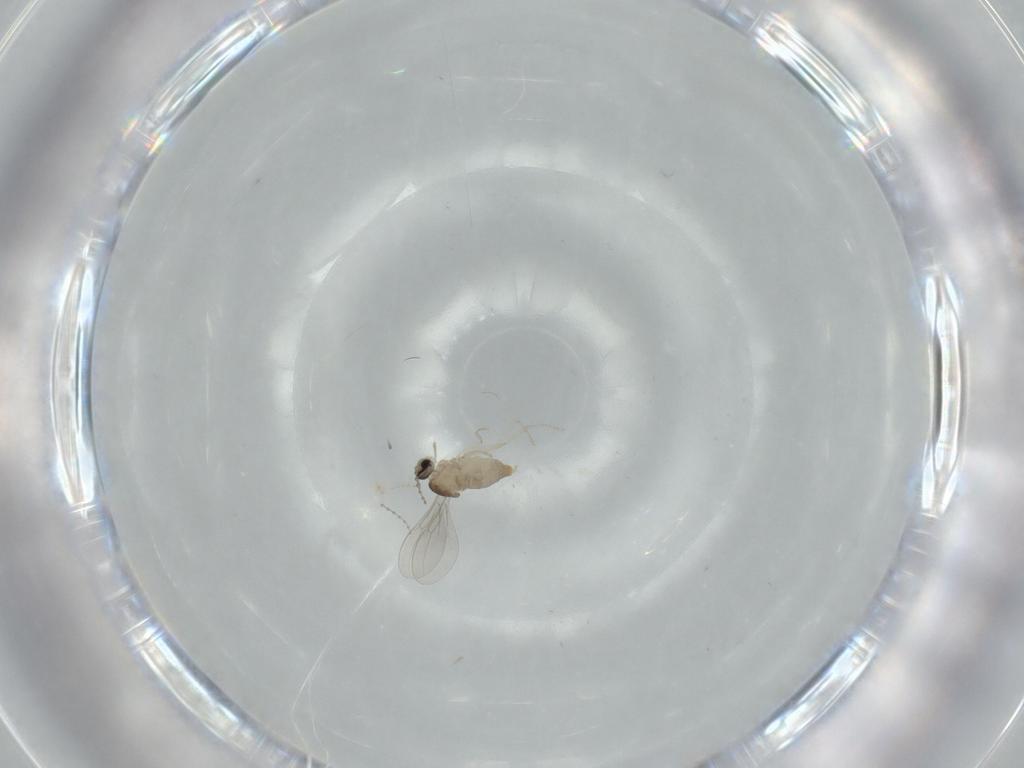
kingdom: Animalia
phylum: Arthropoda
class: Insecta
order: Diptera
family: Cecidomyiidae
